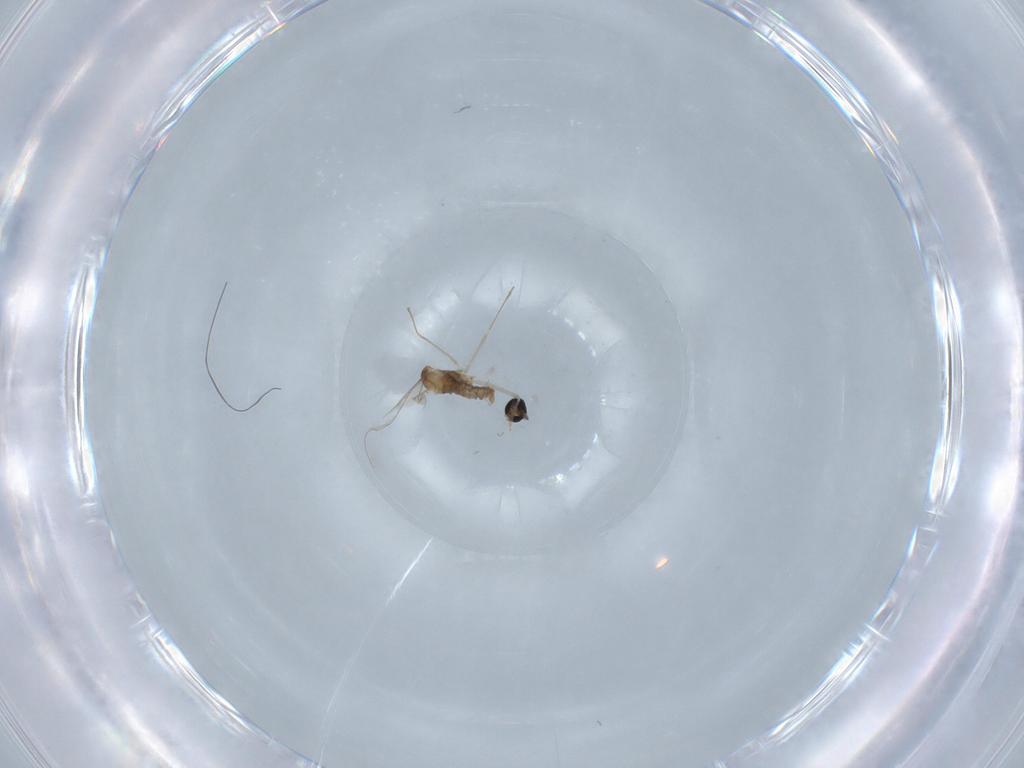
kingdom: Animalia
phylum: Arthropoda
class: Insecta
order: Diptera
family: Cecidomyiidae
